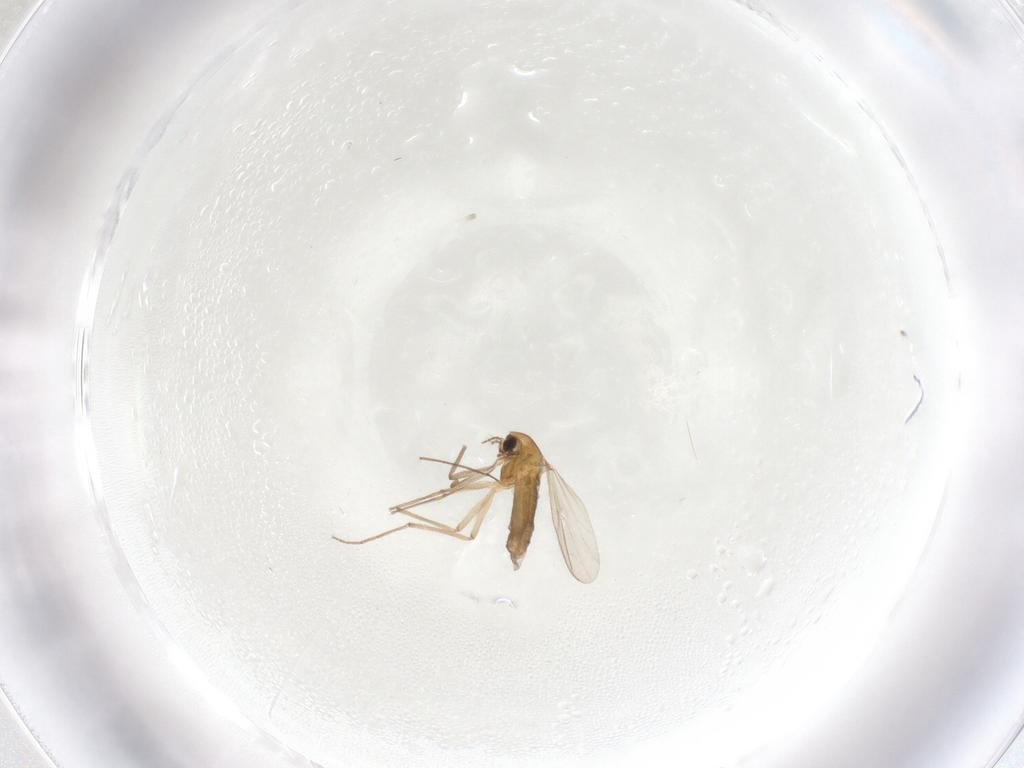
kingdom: Animalia
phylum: Arthropoda
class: Insecta
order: Diptera
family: Chironomidae
